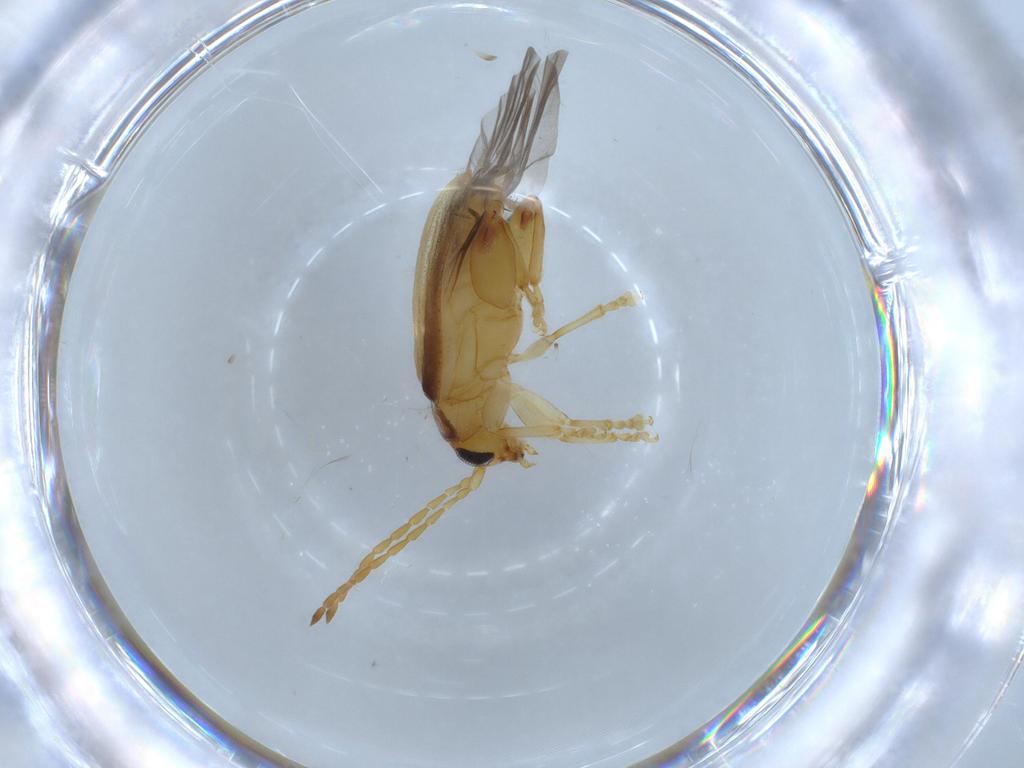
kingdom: Animalia
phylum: Arthropoda
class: Insecta
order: Coleoptera
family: Chrysomelidae
